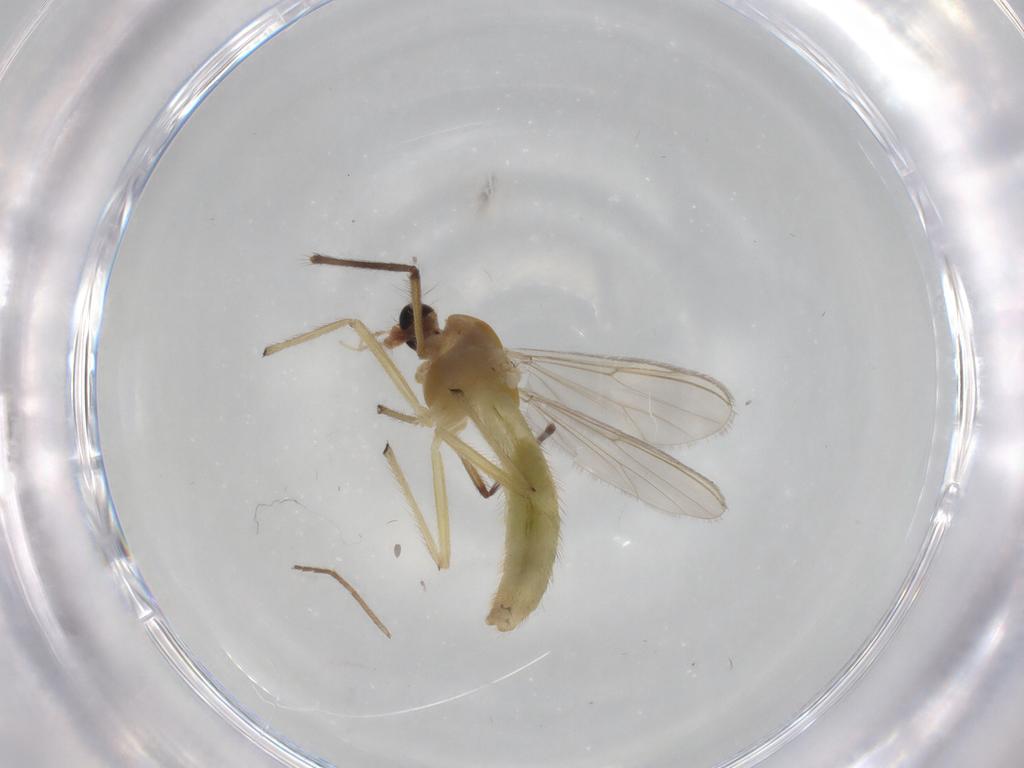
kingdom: Animalia
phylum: Arthropoda
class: Insecta
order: Diptera
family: Chironomidae
